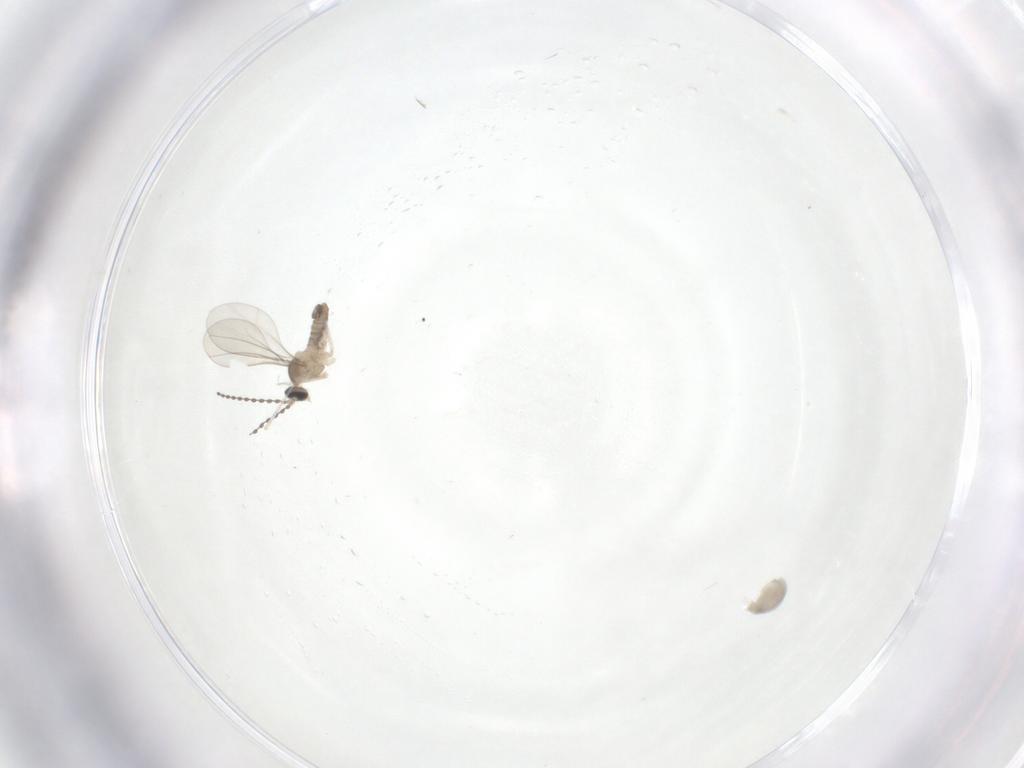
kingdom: Animalia
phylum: Arthropoda
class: Insecta
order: Diptera
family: Cecidomyiidae
